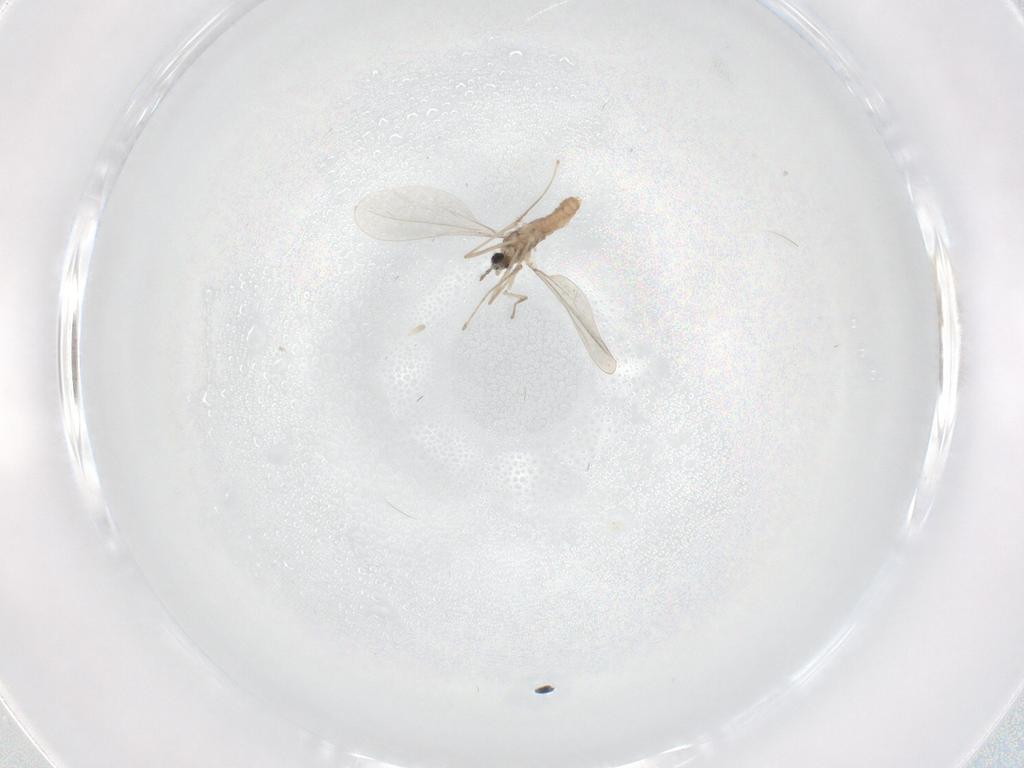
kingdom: Animalia
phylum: Arthropoda
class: Insecta
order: Diptera
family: Cecidomyiidae
